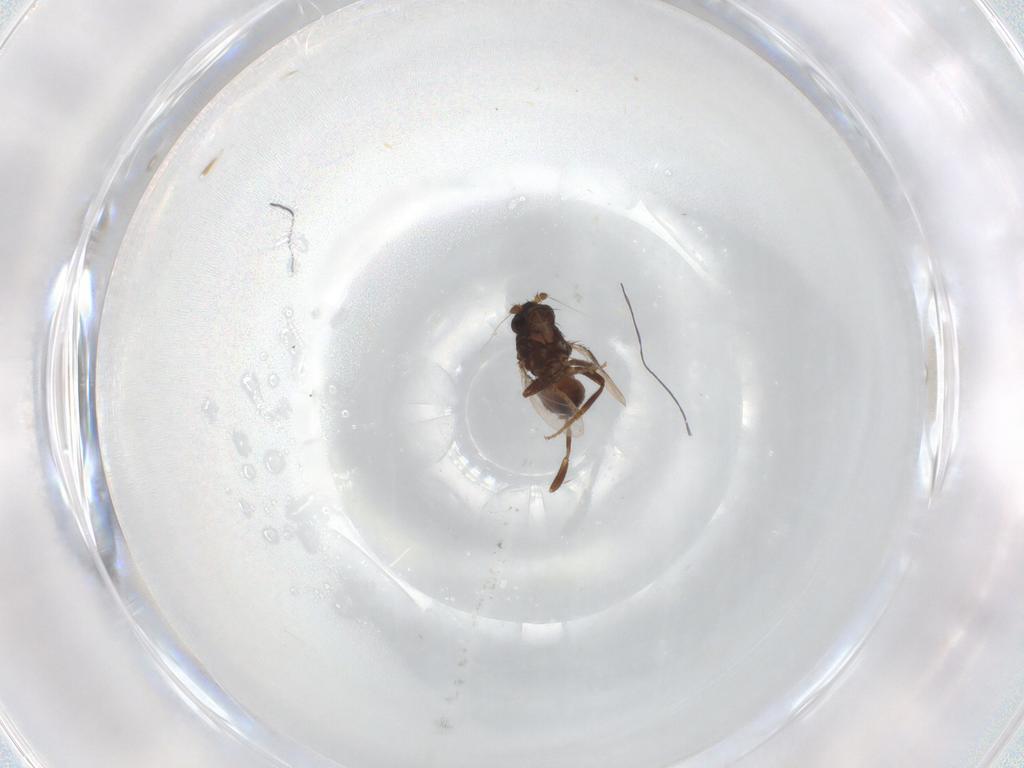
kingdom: Animalia
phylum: Arthropoda
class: Insecta
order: Diptera
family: Sphaeroceridae
